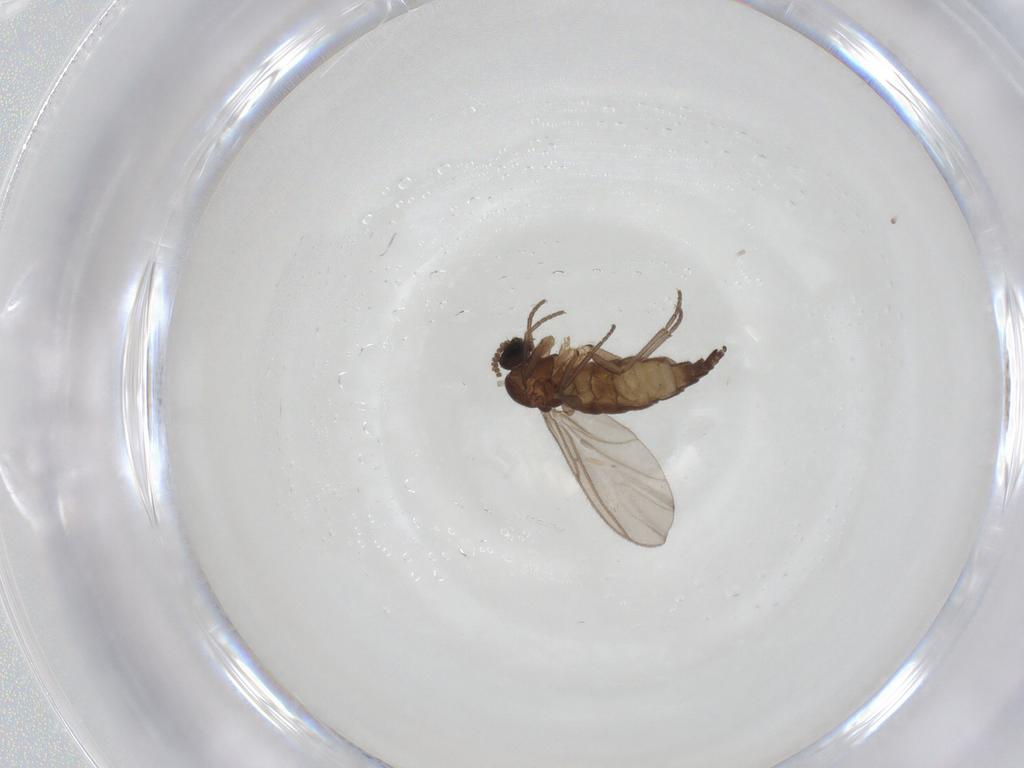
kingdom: Animalia
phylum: Arthropoda
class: Insecta
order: Diptera
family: Sciaridae
